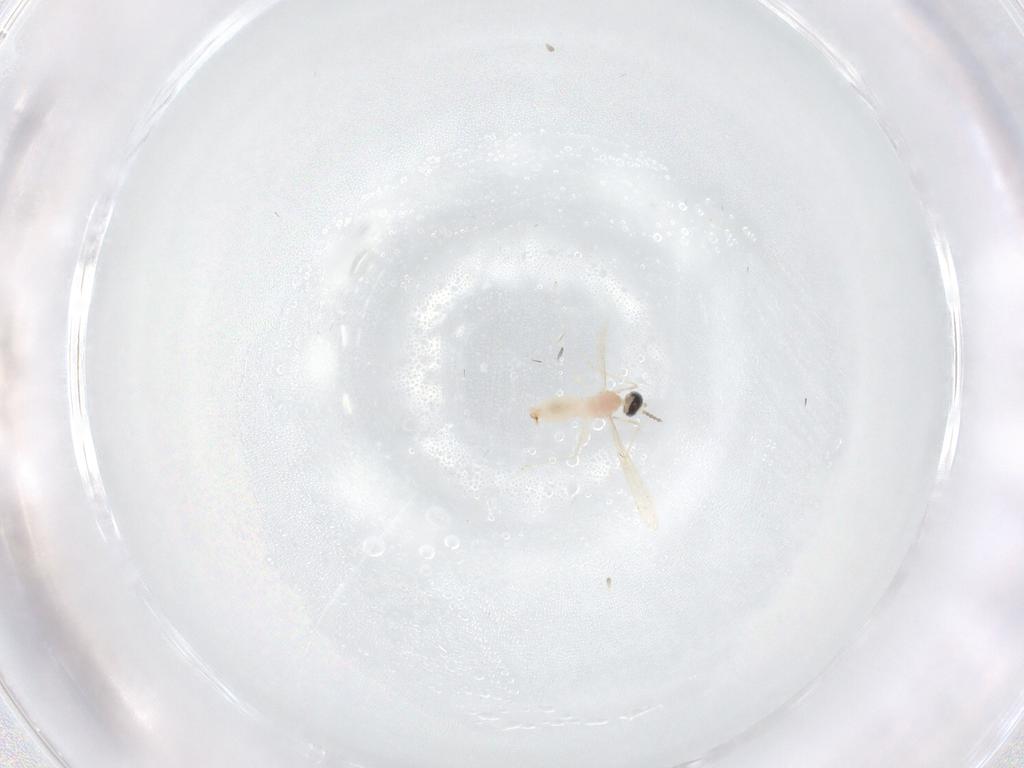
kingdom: Animalia
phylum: Arthropoda
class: Insecta
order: Diptera
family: Cecidomyiidae
